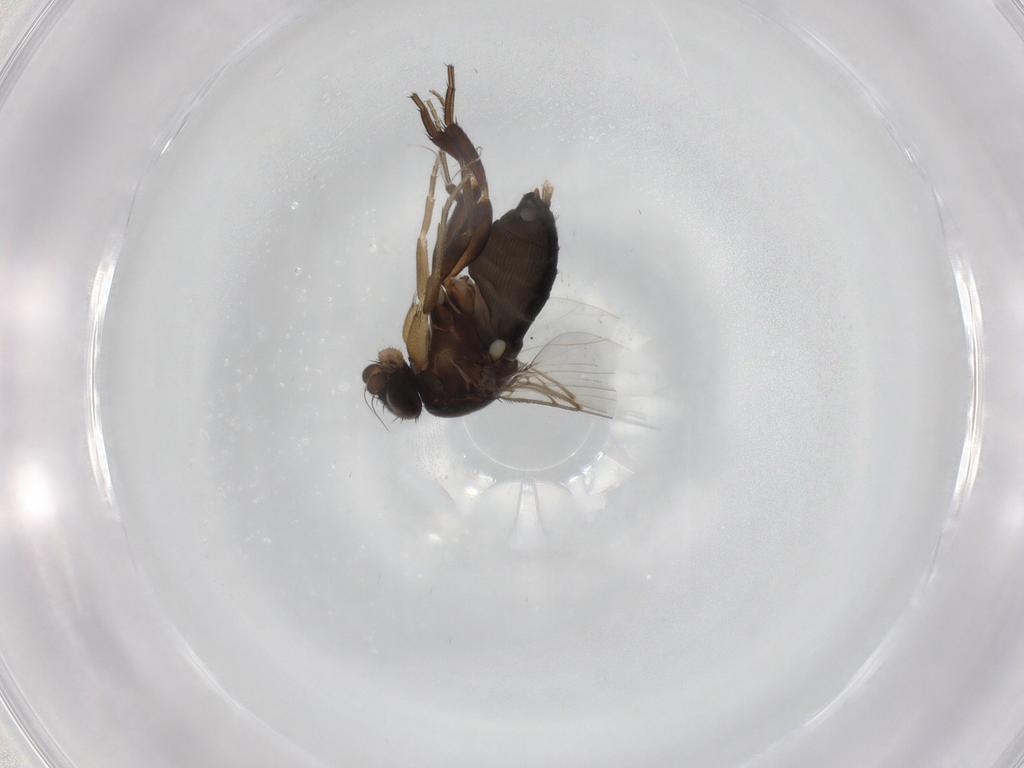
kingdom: Animalia
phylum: Arthropoda
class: Insecta
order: Diptera
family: Phoridae
